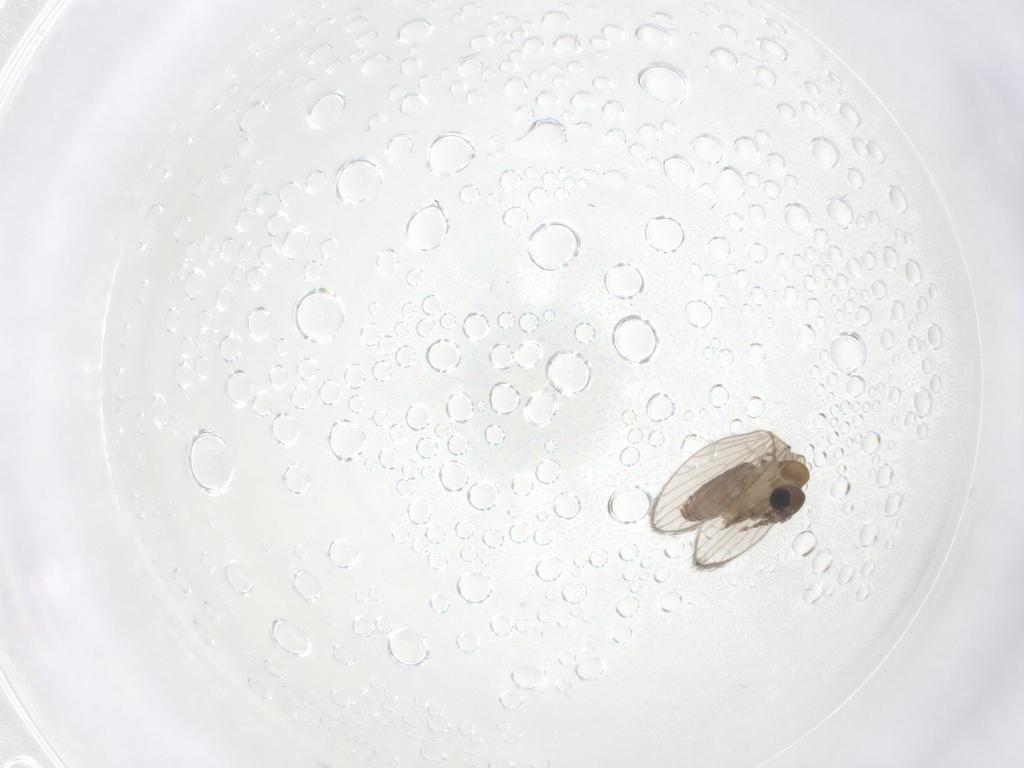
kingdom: Animalia
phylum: Arthropoda
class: Insecta
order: Diptera
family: Psychodidae
